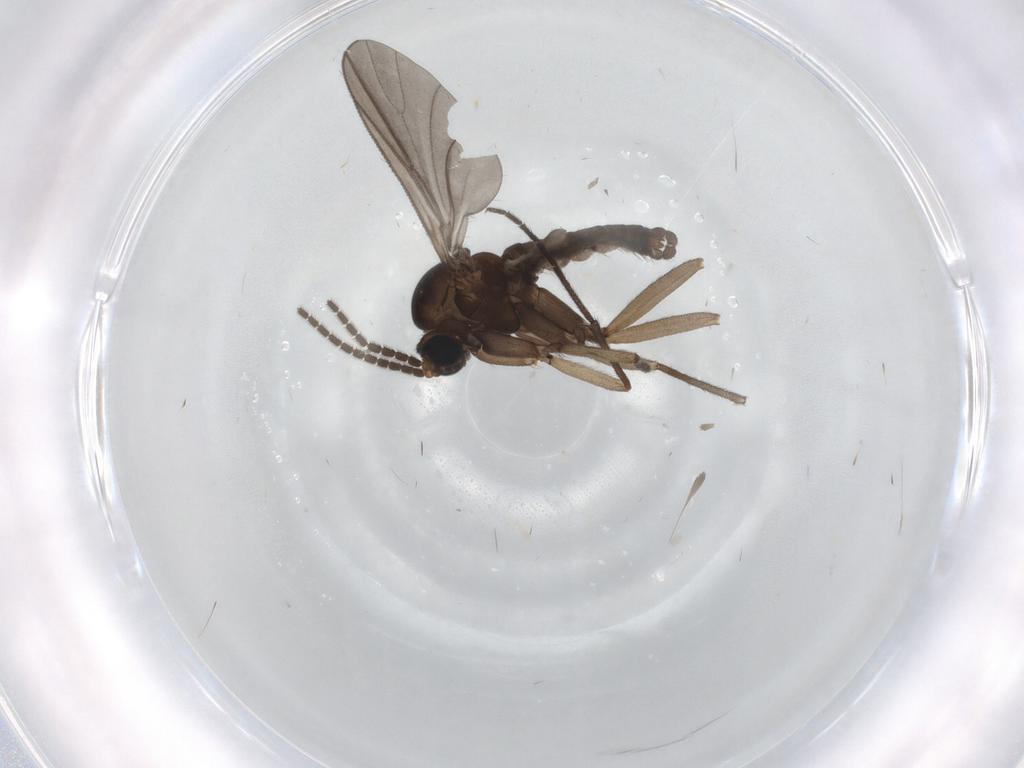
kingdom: Animalia
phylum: Arthropoda
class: Insecta
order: Diptera
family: Sciaridae
